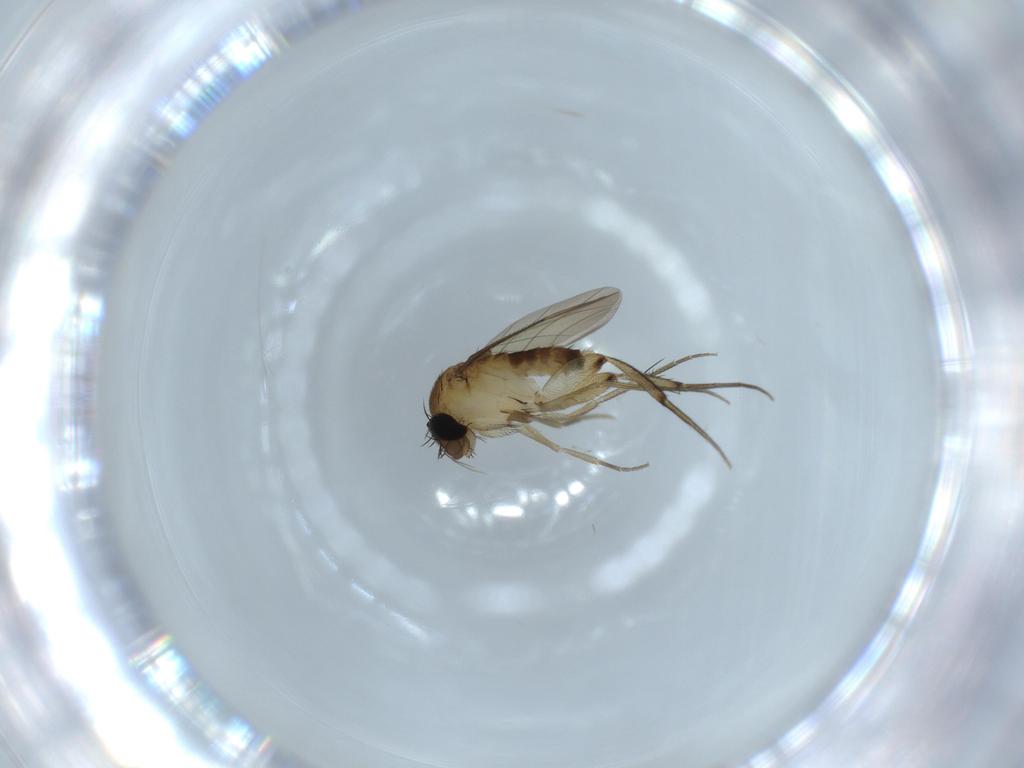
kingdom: Animalia
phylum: Arthropoda
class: Insecta
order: Diptera
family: Phoridae
